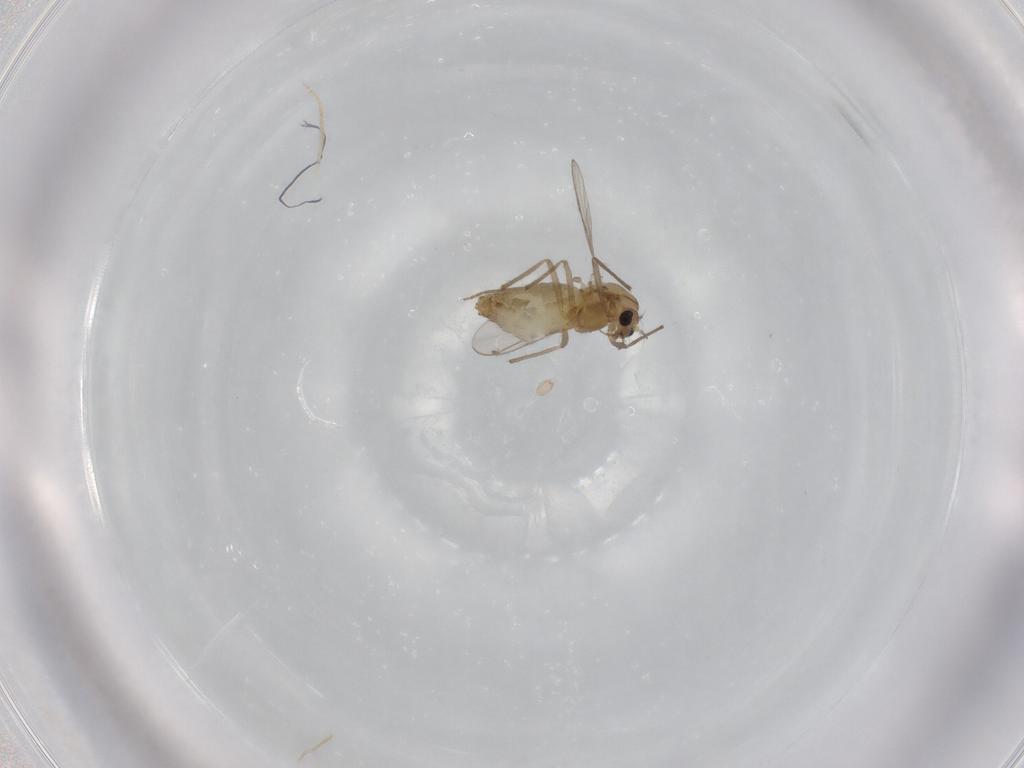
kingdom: Animalia
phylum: Arthropoda
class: Insecta
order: Diptera
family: Chironomidae
